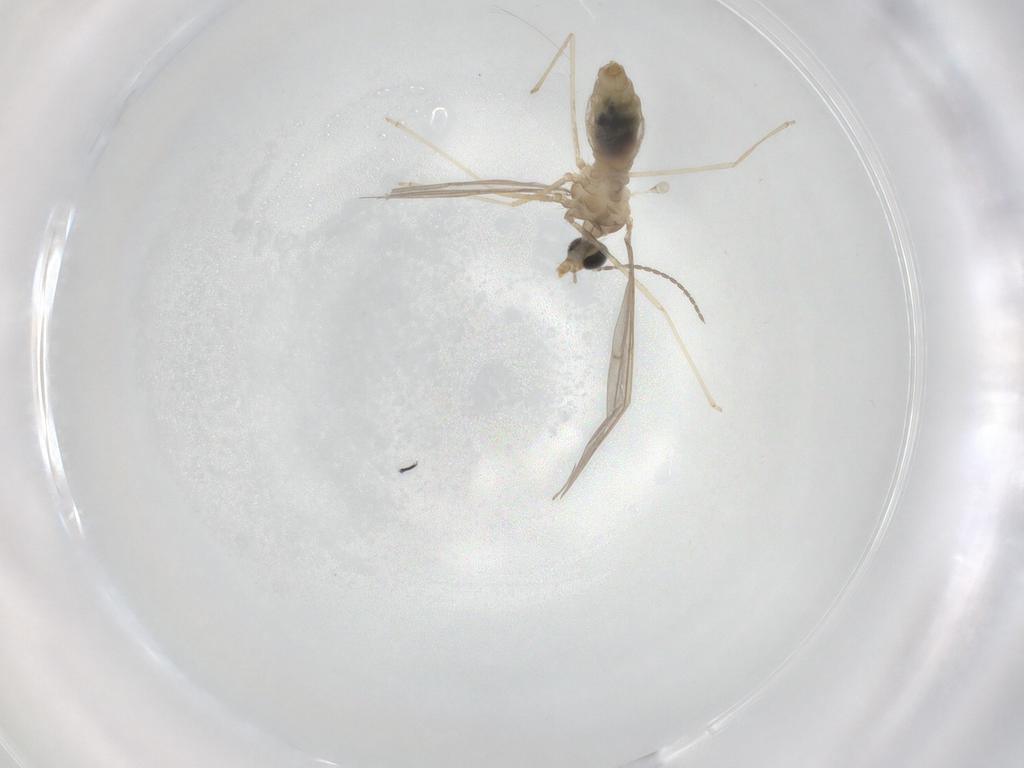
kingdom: Animalia
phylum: Arthropoda
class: Insecta
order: Diptera
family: Anthomyzidae
